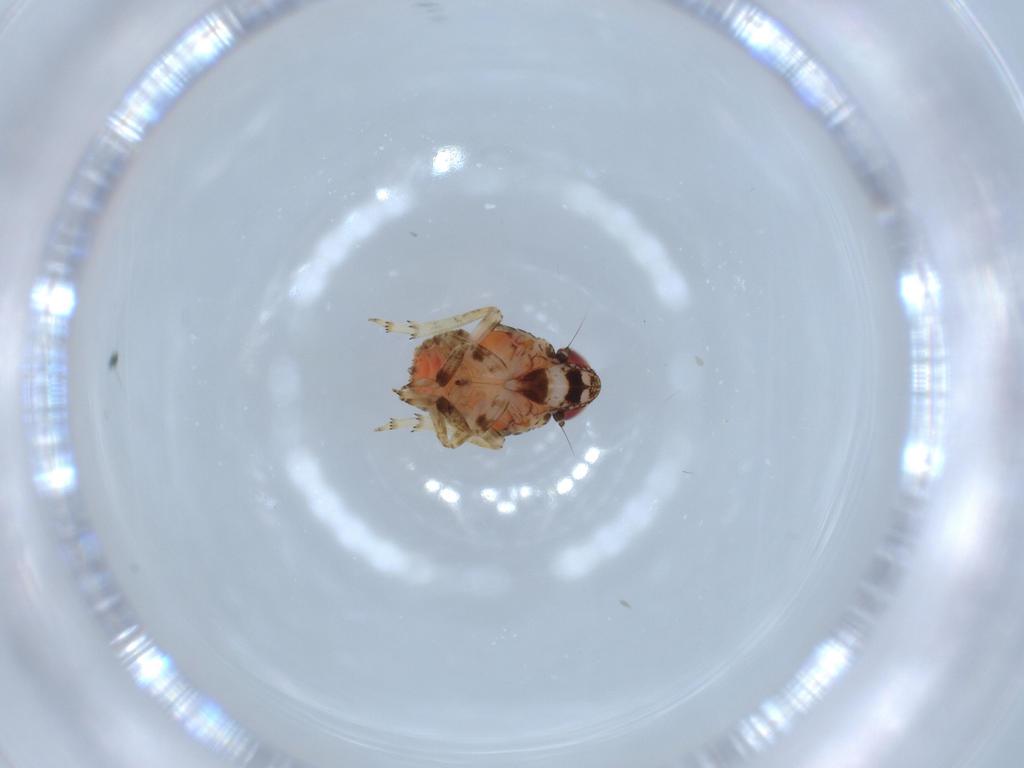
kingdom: Animalia
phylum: Arthropoda
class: Insecta
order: Hemiptera
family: Issidae
